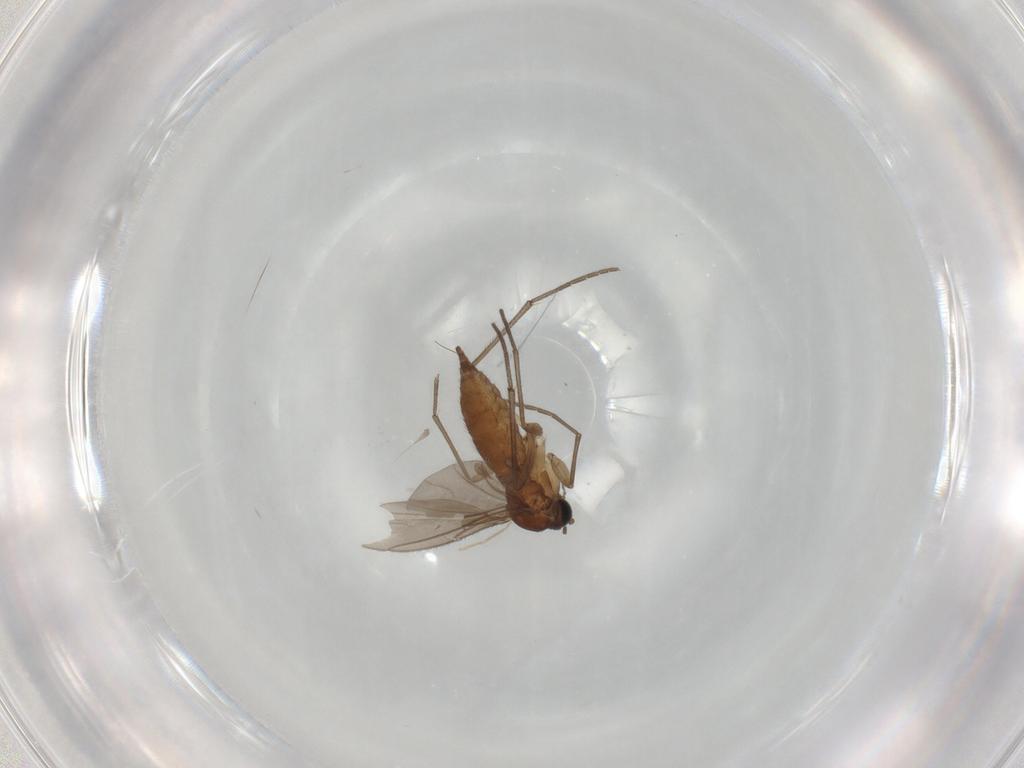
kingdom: Animalia
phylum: Arthropoda
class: Insecta
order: Diptera
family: Sciaridae
